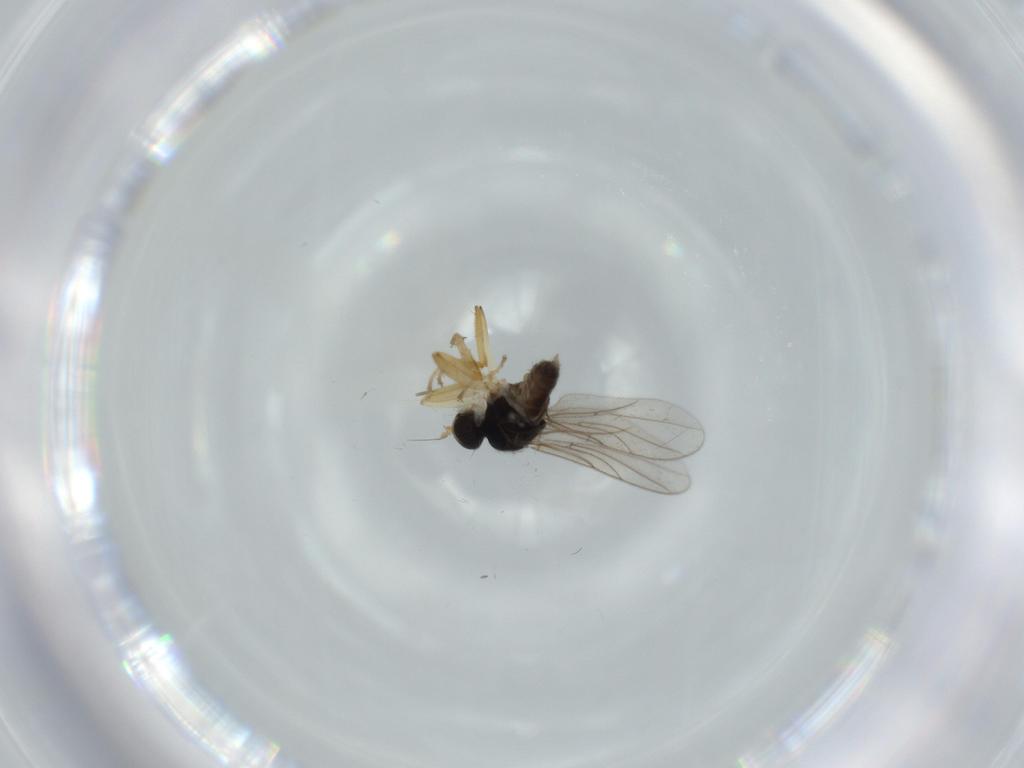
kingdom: Animalia
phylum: Arthropoda
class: Insecta
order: Diptera
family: Hybotidae
